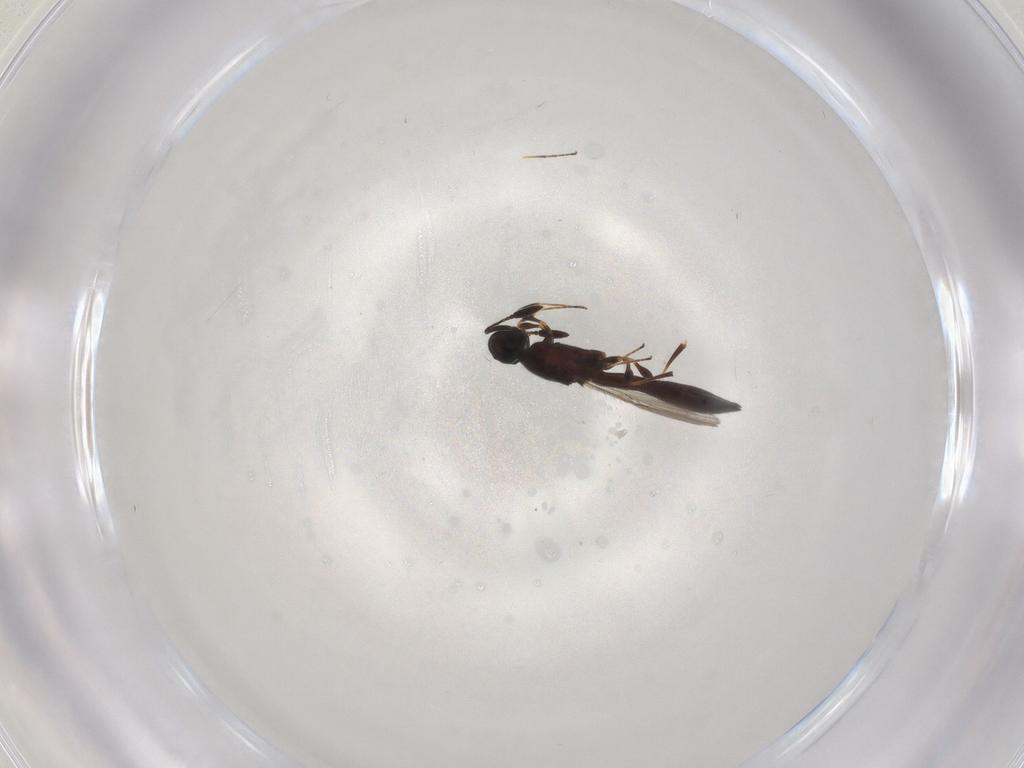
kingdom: Animalia
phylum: Arthropoda
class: Insecta
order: Hymenoptera
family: Scelionidae
